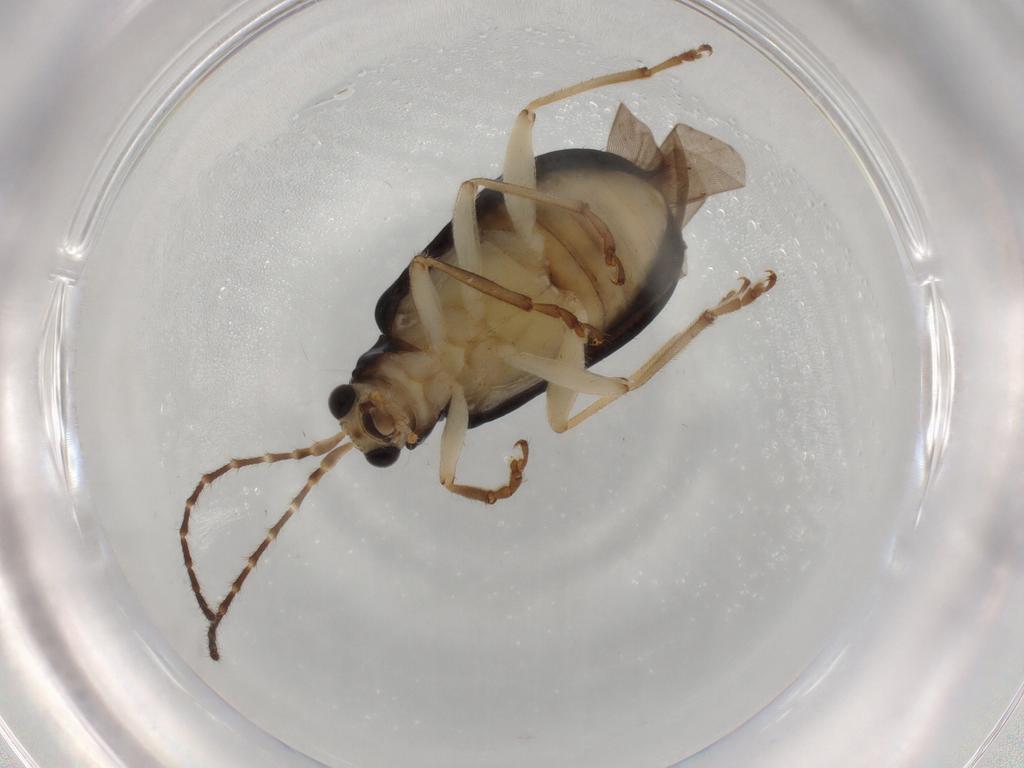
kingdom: Animalia
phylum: Arthropoda
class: Insecta
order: Coleoptera
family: Chrysomelidae
